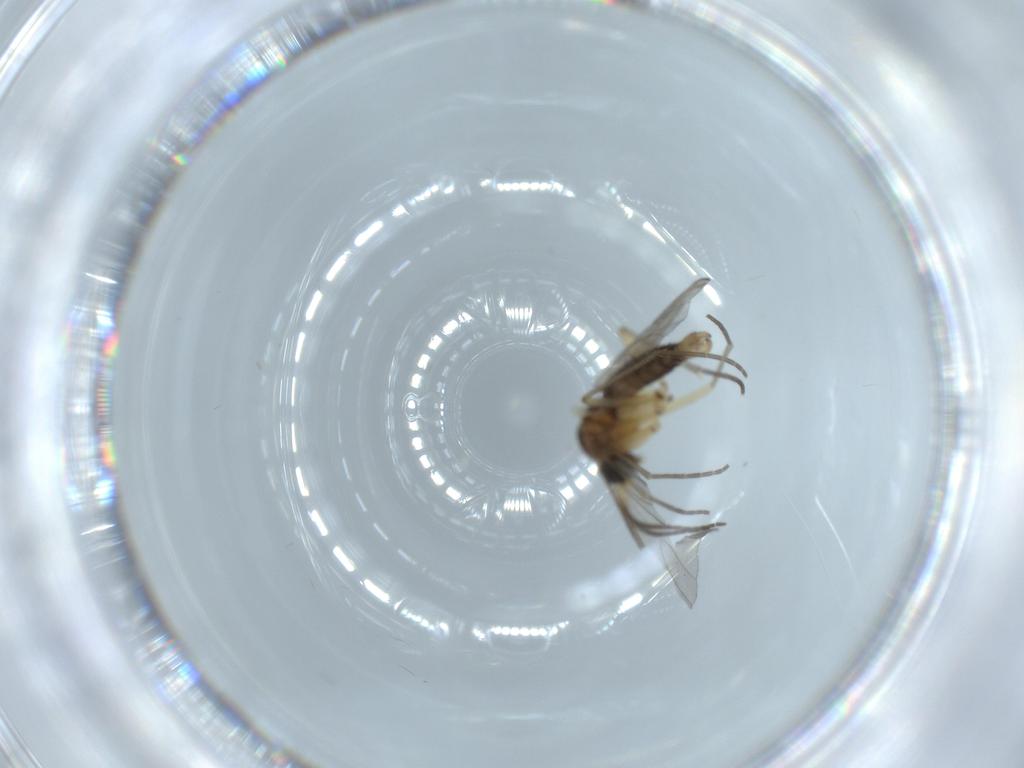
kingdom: Animalia
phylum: Arthropoda
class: Insecta
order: Diptera
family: Sciaridae
